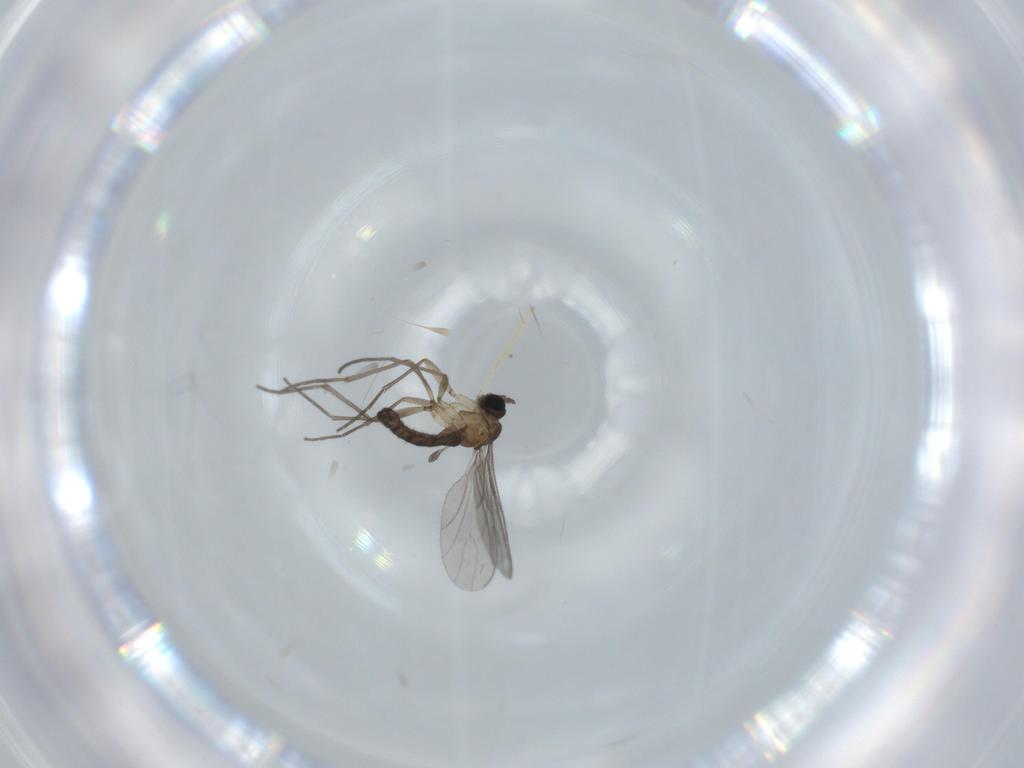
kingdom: Animalia
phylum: Arthropoda
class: Insecta
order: Diptera
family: Sciaridae
